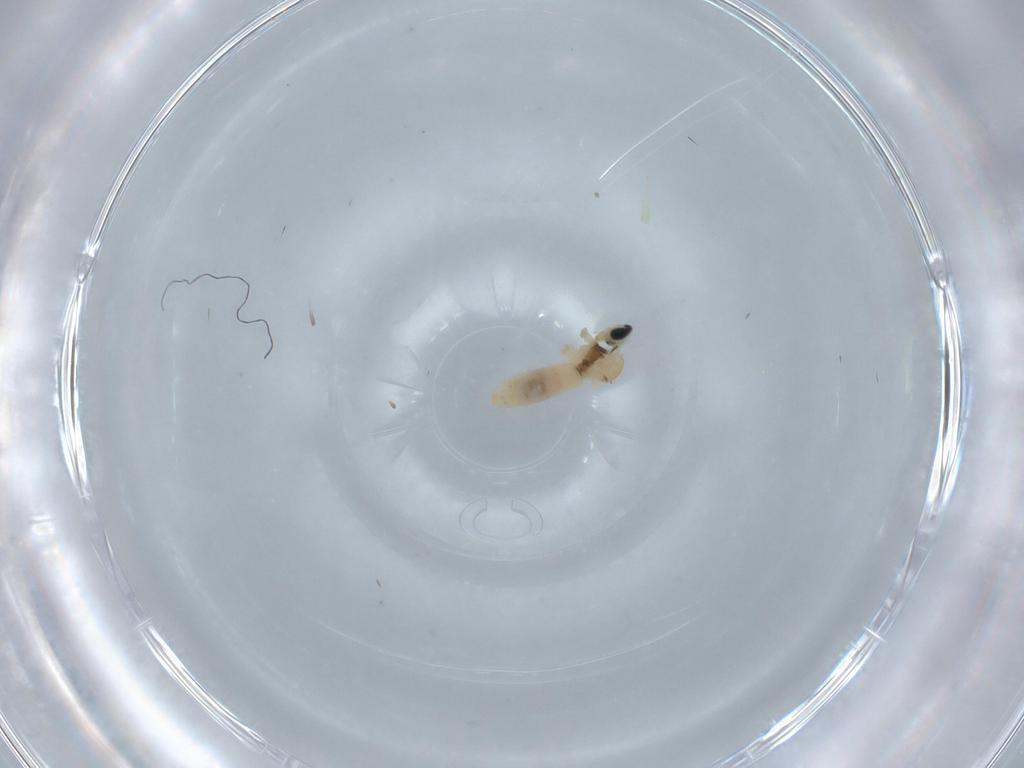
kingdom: Animalia
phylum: Arthropoda
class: Insecta
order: Diptera
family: Cecidomyiidae
